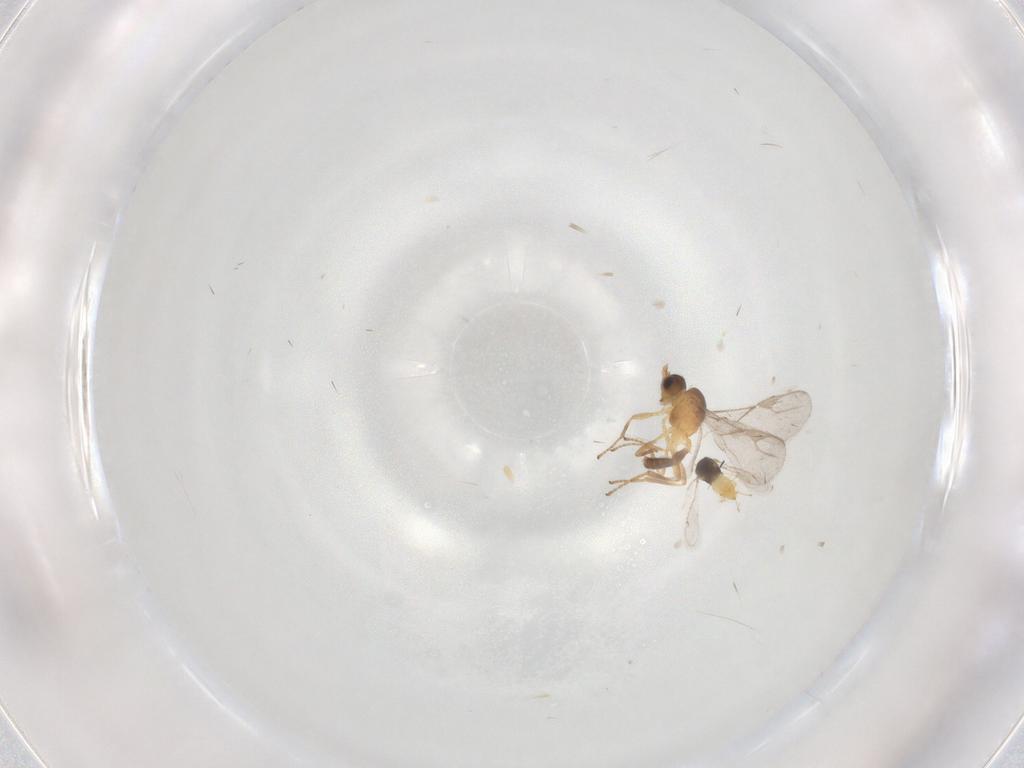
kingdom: Animalia
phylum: Arthropoda
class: Insecta
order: Hymenoptera
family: Braconidae
